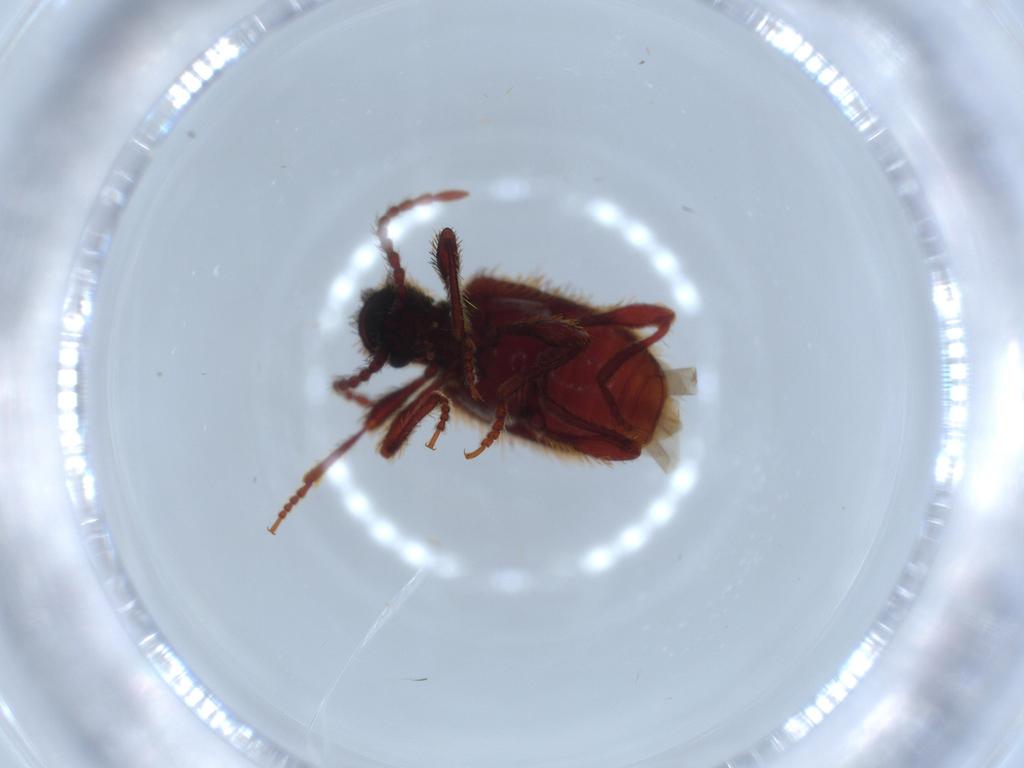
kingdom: Animalia
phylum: Arthropoda
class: Insecta
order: Coleoptera
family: Ptinidae
